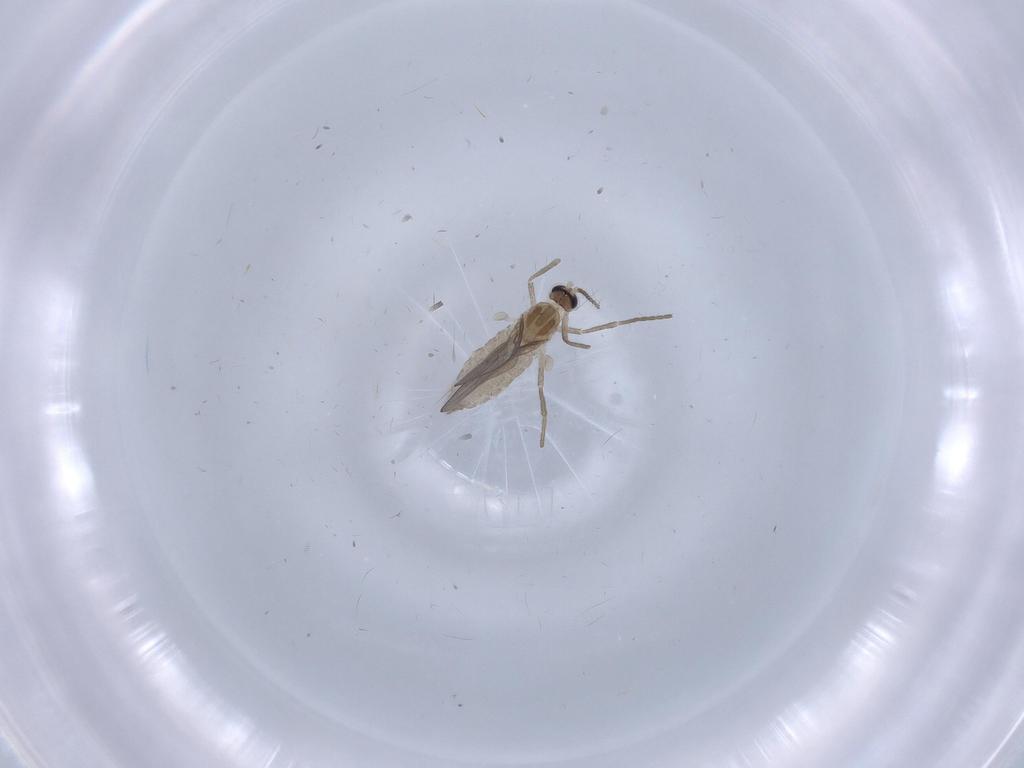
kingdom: Animalia
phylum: Arthropoda
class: Insecta
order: Diptera
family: Cecidomyiidae
